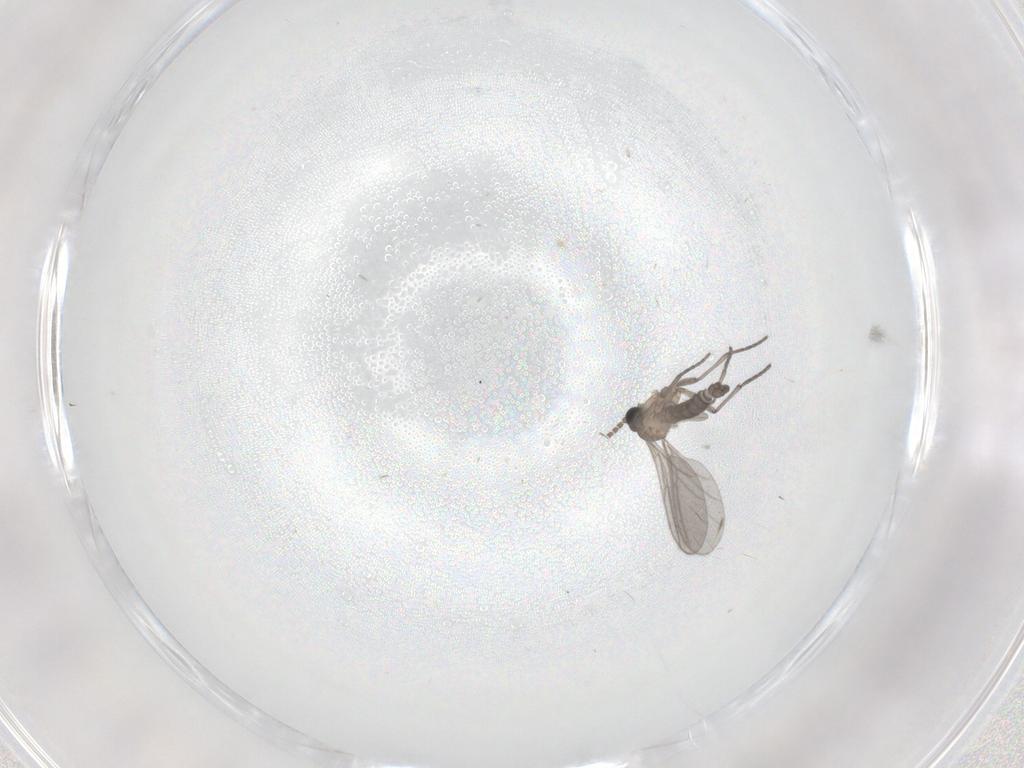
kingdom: Animalia
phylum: Arthropoda
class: Insecta
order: Diptera
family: Sciaridae
